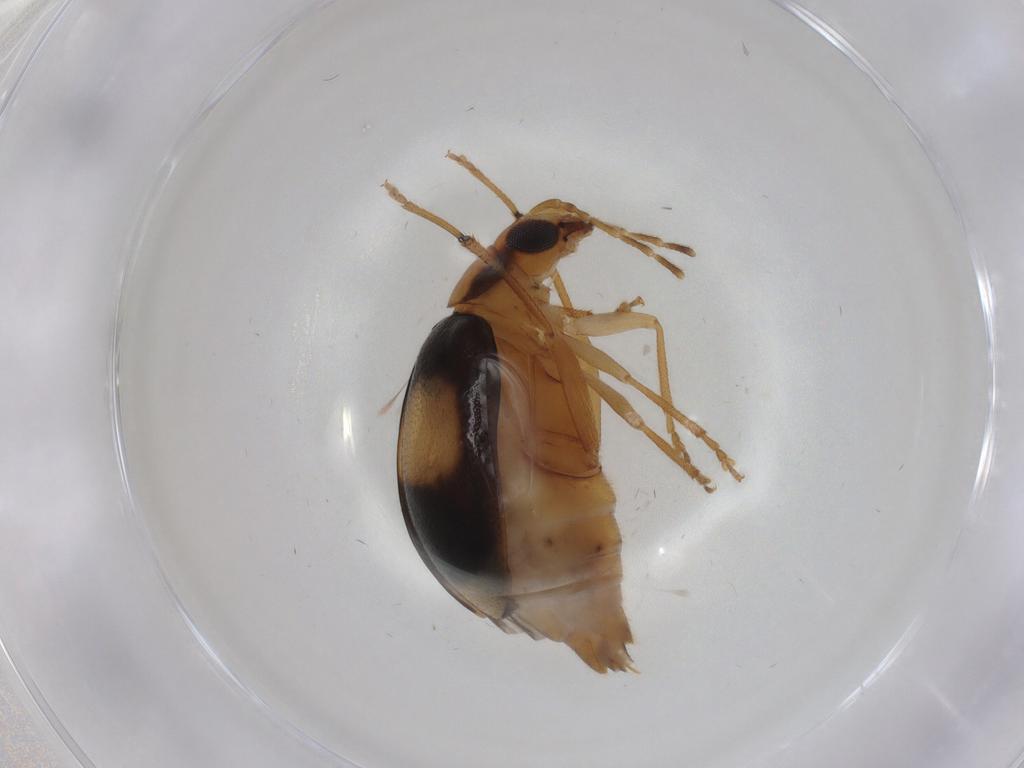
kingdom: Animalia
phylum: Arthropoda
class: Insecta
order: Coleoptera
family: Chrysomelidae
